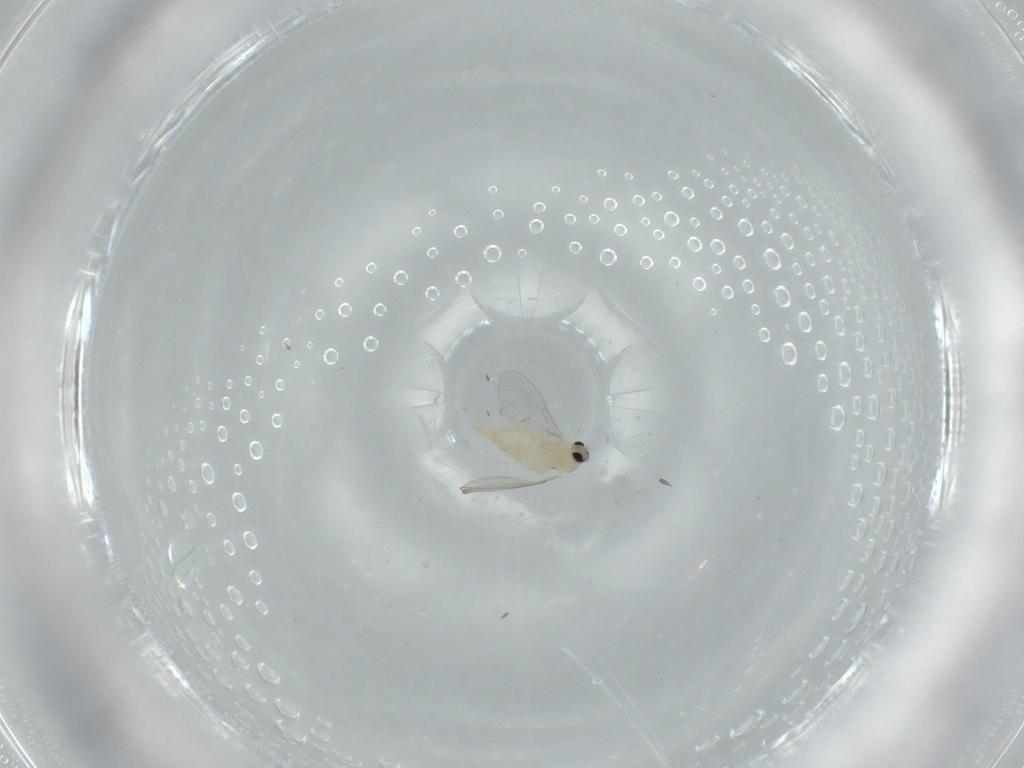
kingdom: Animalia
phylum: Arthropoda
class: Insecta
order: Diptera
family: Cecidomyiidae
